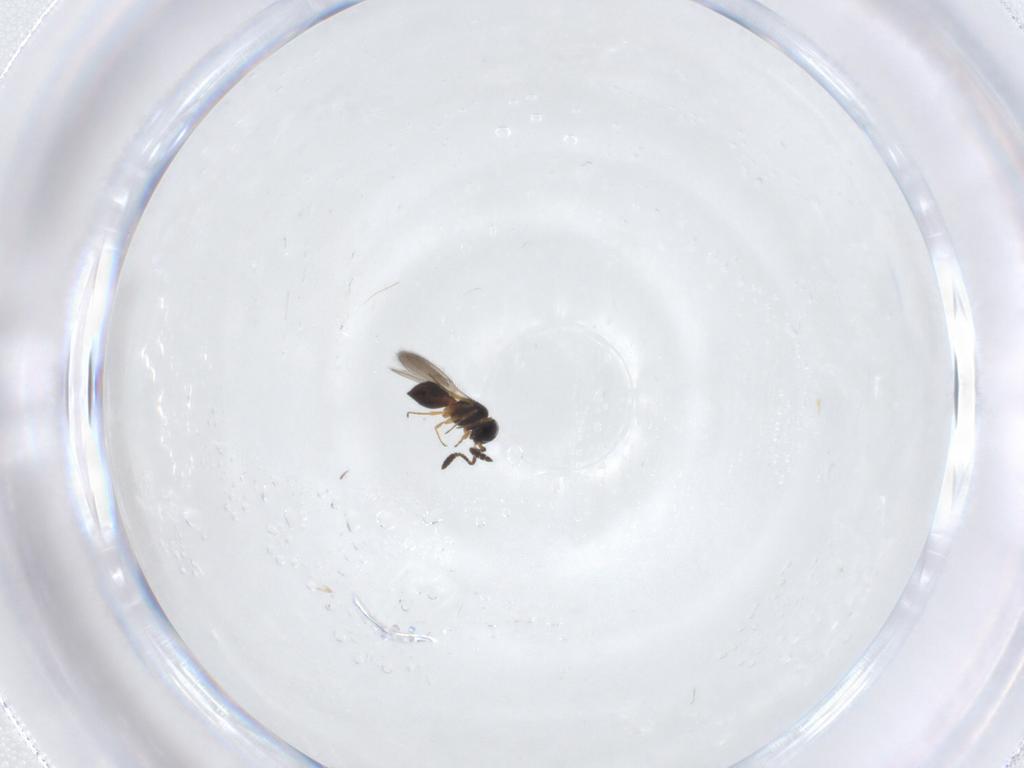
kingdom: Animalia
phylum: Arthropoda
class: Insecta
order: Hymenoptera
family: Scelionidae
